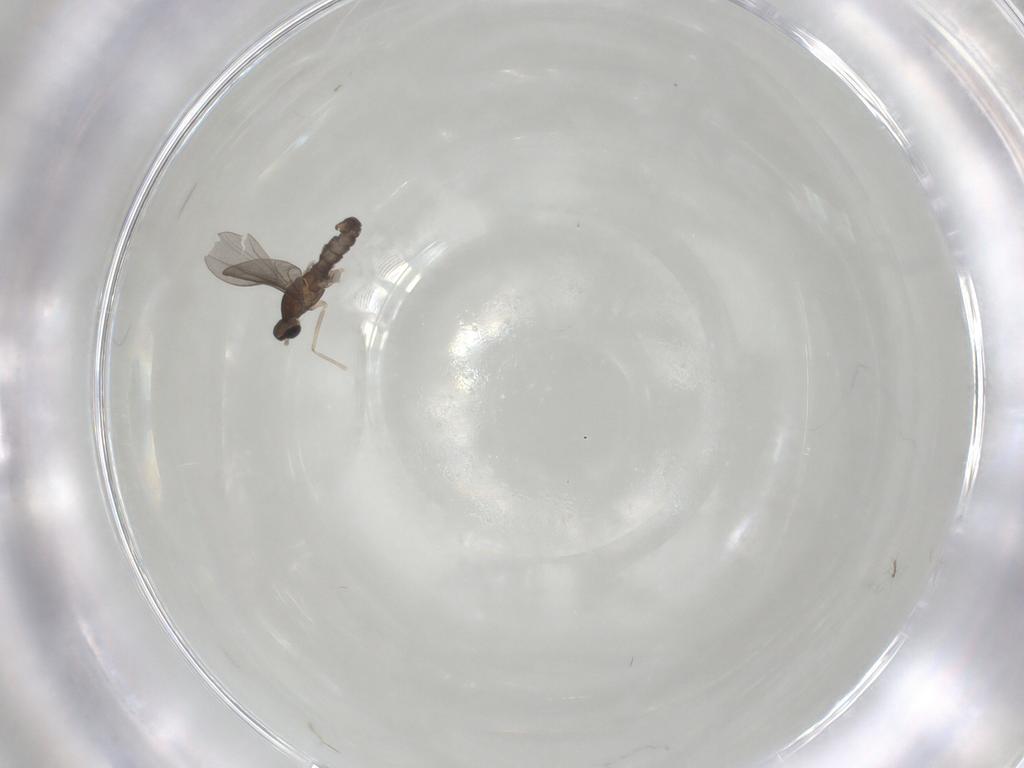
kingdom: Animalia
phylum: Arthropoda
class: Insecta
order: Diptera
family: Cecidomyiidae
